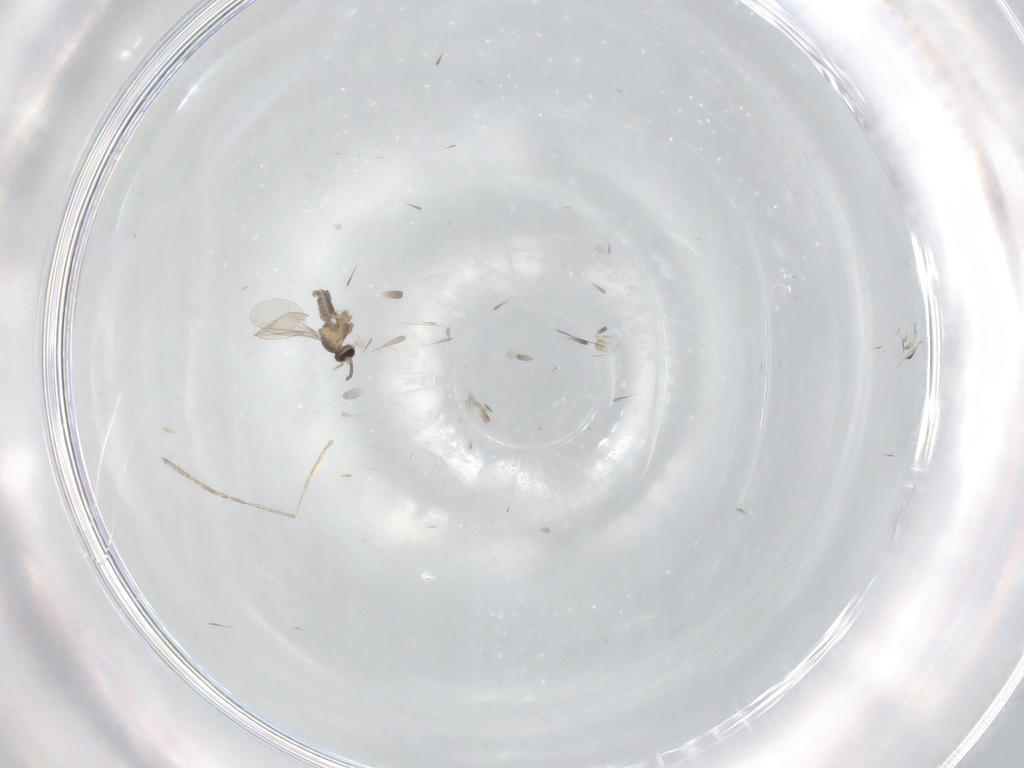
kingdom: Animalia
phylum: Arthropoda
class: Insecta
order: Diptera
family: Cecidomyiidae
